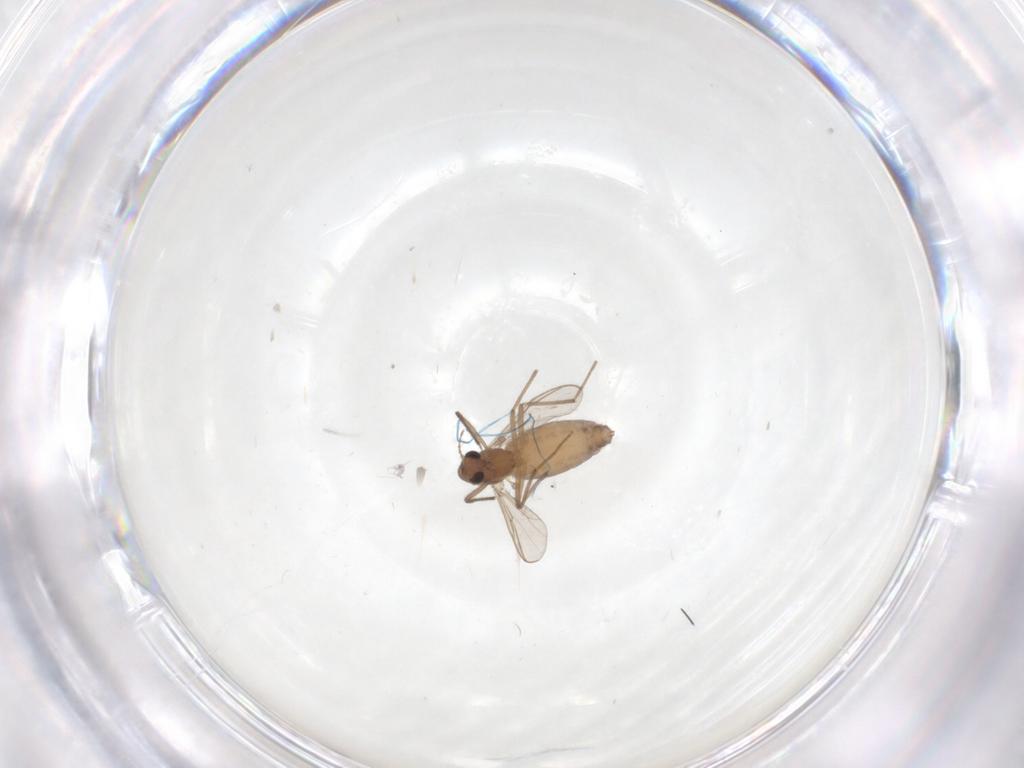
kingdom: Animalia
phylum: Arthropoda
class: Insecta
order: Diptera
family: Chironomidae
